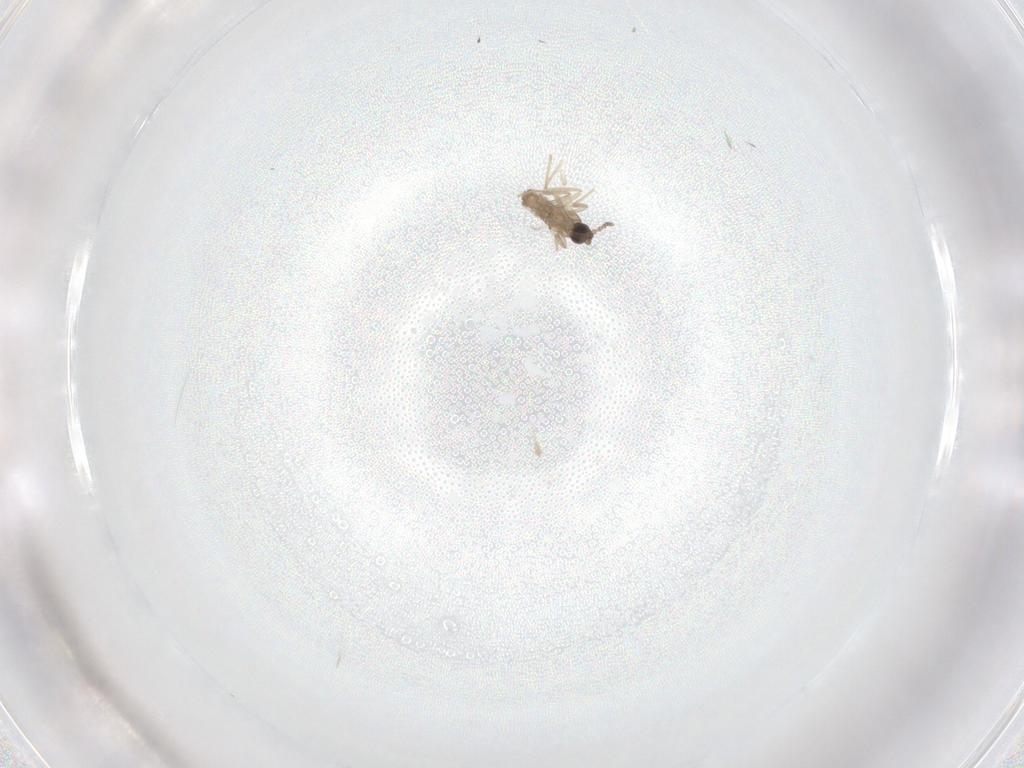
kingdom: Animalia
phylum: Arthropoda
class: Insecta
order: Diptera
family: Cecidomyiidae
